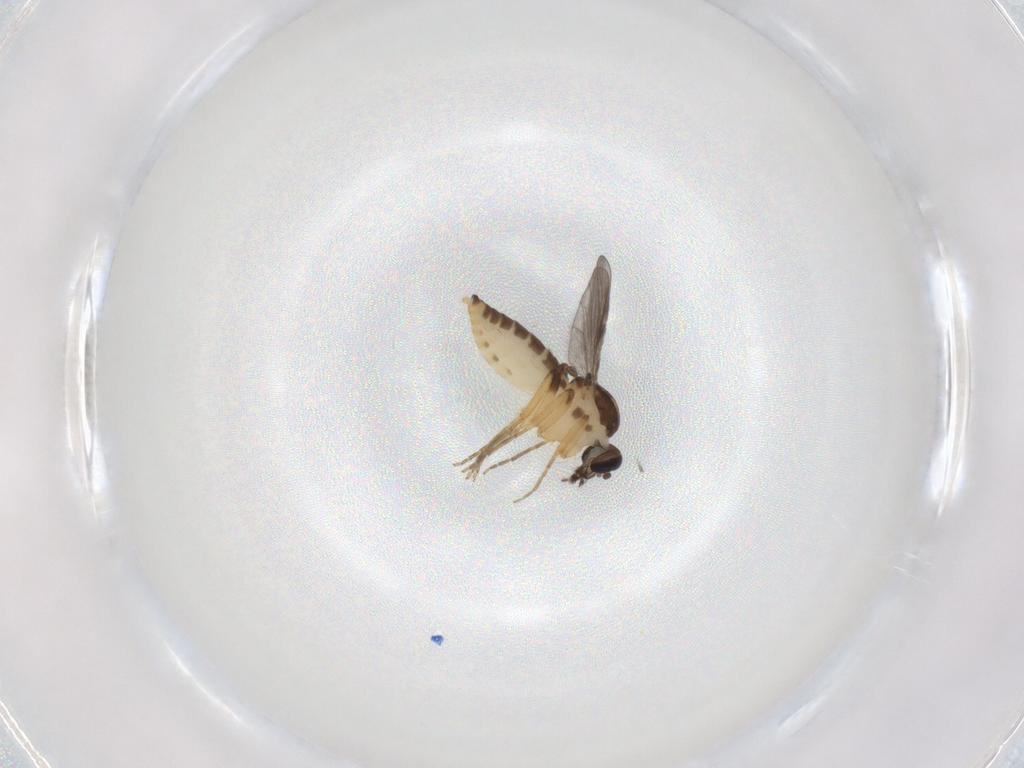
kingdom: Animalia
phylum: Arthropoda
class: Insecta
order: Diptera
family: Ceratopogonidae
